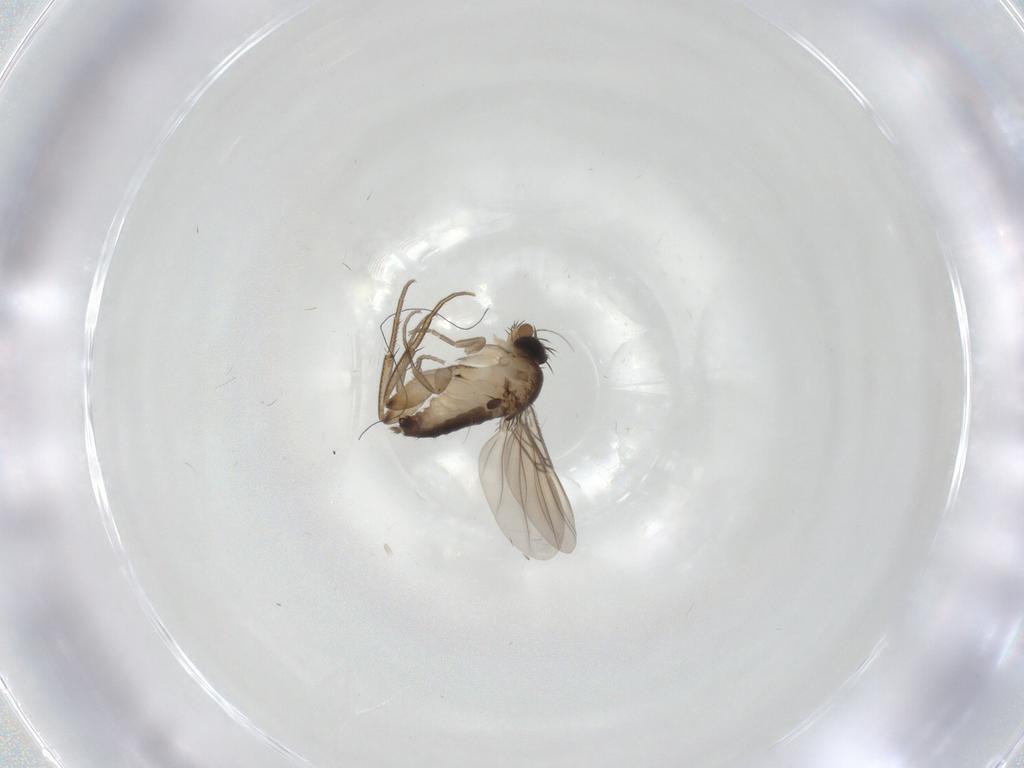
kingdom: Animalia
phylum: Arthropoda
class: Insecta
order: Diptera
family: Phoridae
